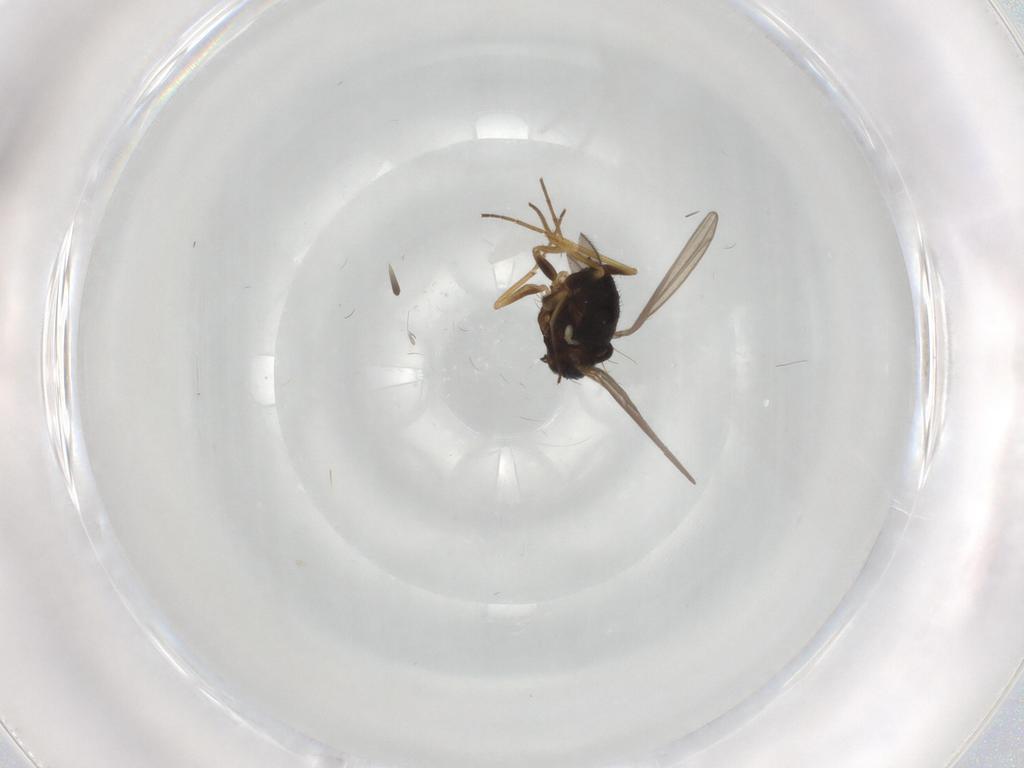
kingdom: Animalia
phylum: Arthropoda
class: Insecta
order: Diptera
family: Dolichopodidae
